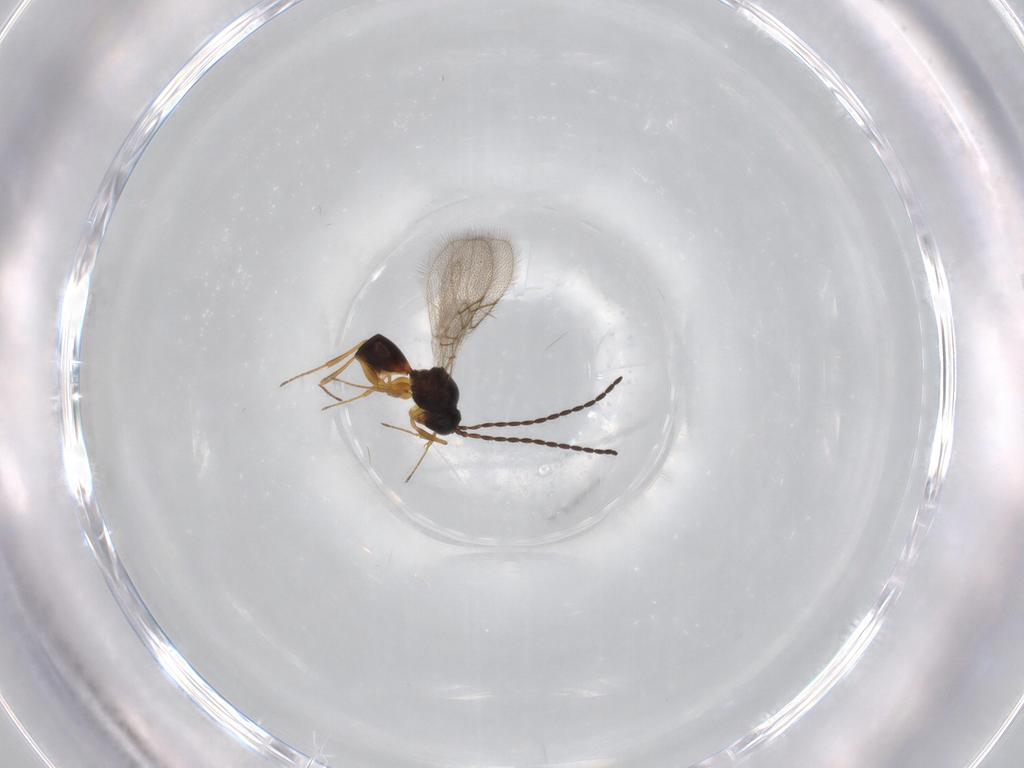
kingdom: Animalia
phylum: Arthropoda
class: Insecta
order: Hymenoptera
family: Figitidae
